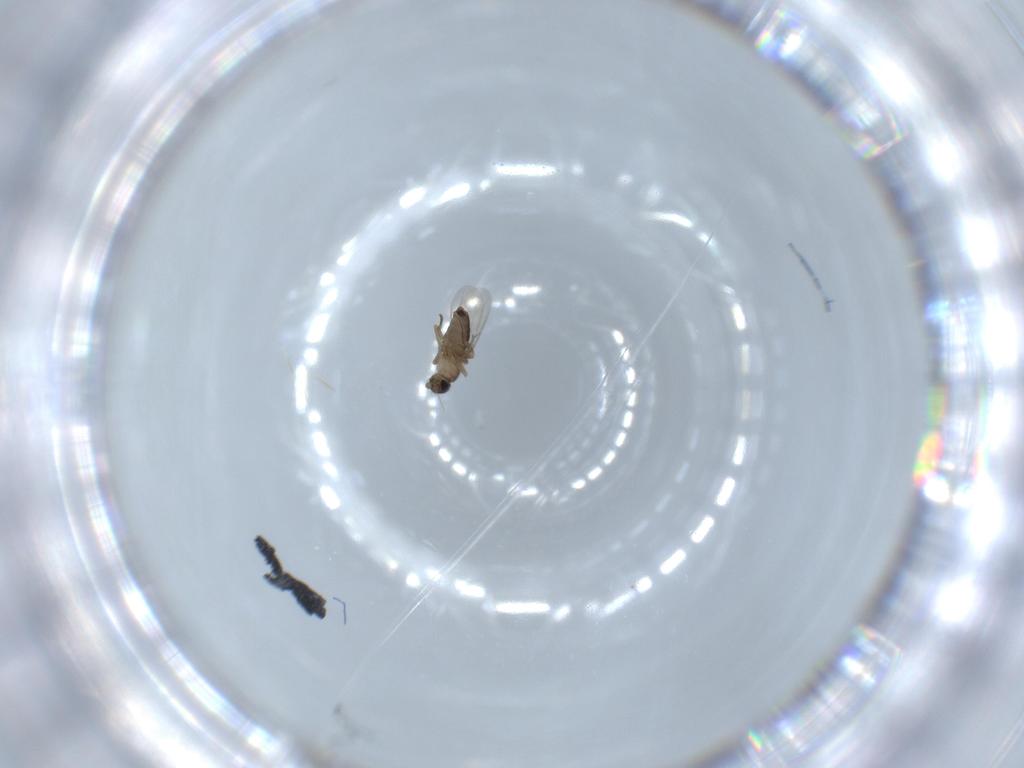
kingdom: Animalia
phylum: Arthropoda
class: Insecta
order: Diptera
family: Phoridae
